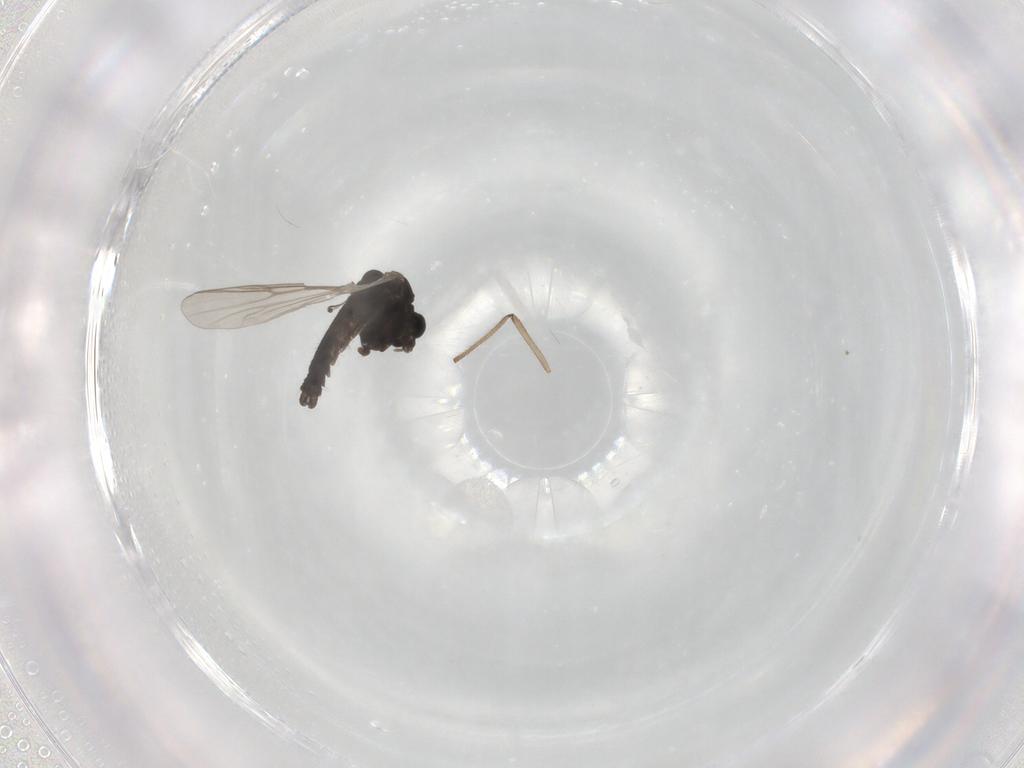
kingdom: Animalia
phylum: Arthropoda
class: Insecta
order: Diptera
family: Chironomidae
